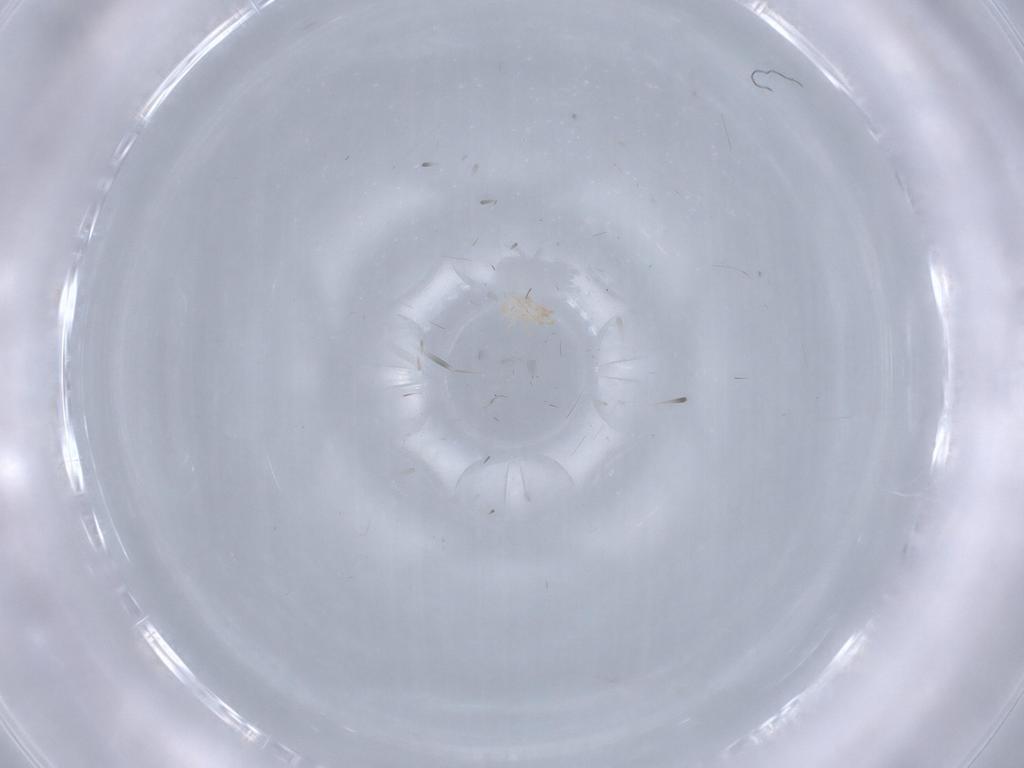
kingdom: Animalia
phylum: Arthropoda
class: Arachnida
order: Mesostigmata
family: Digamasellidae
